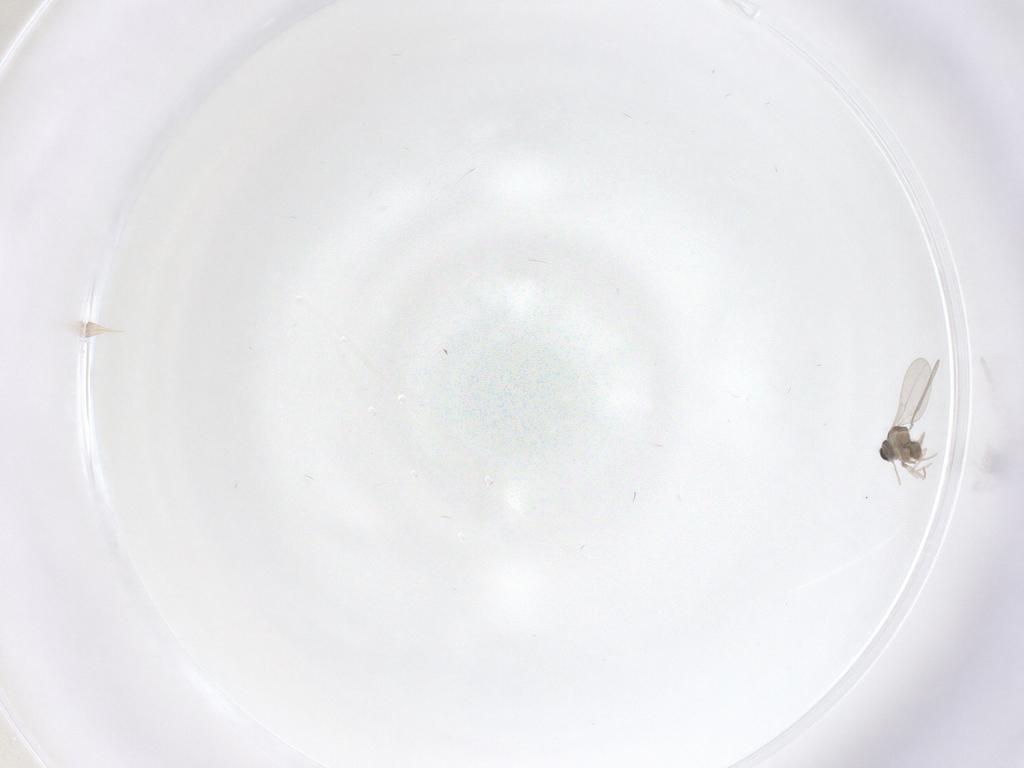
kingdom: Animalia
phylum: Arthropoda
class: Insecta
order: Diptera
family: Cecidomyiidae
